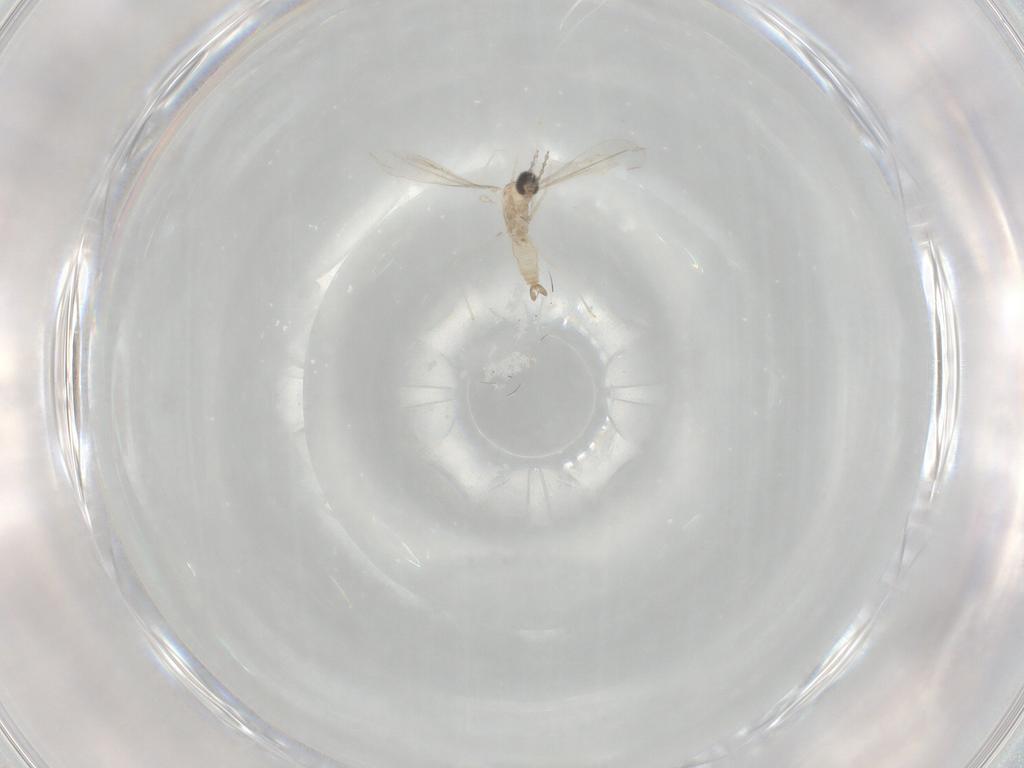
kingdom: Animalia
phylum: Arthropoda
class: Insecta
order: Diptera
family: Cecidomyiidae
